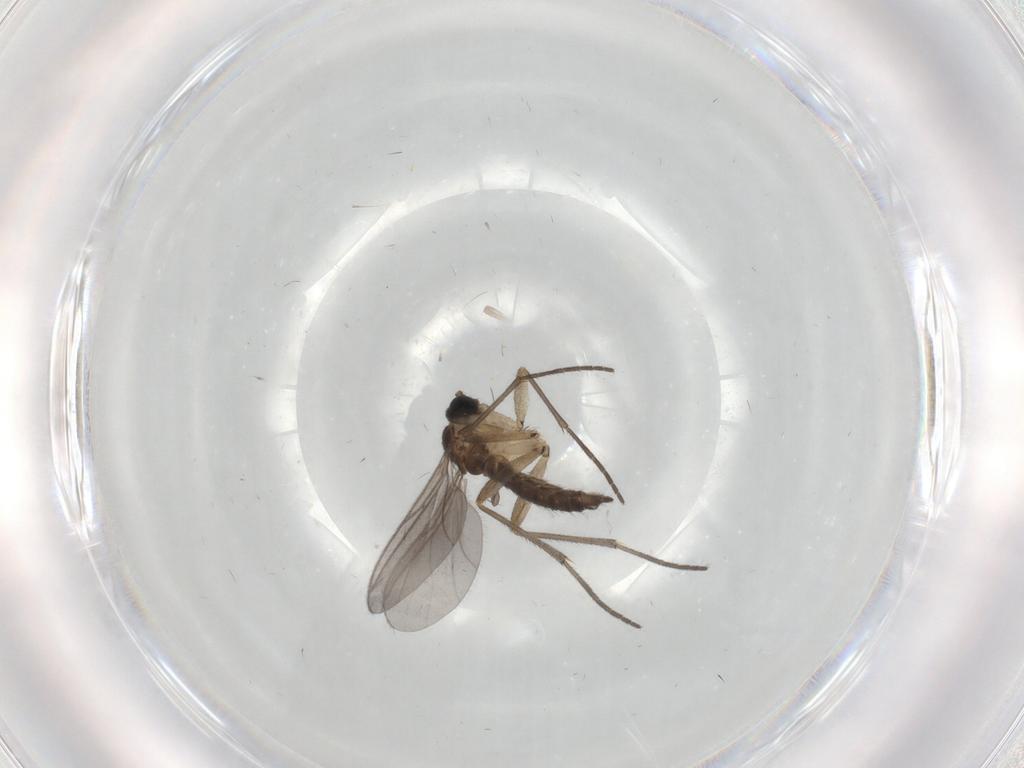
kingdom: Animalia
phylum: Arthropoda
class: Insecta
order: Diptera
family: Sciaridae
